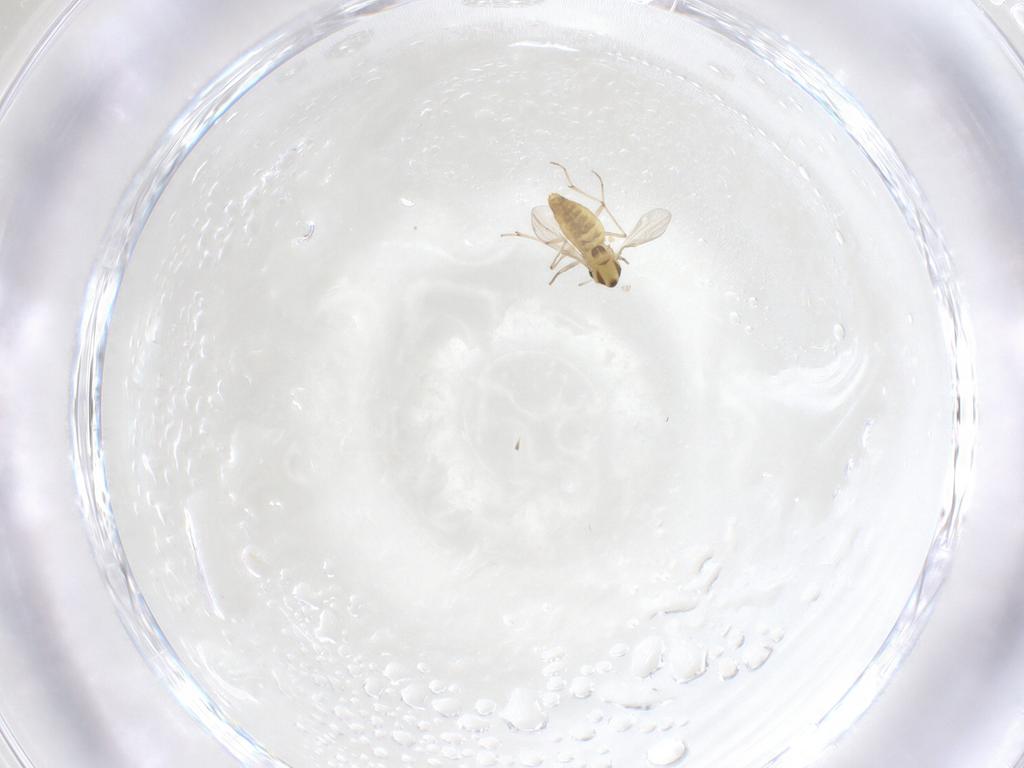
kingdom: Animalia
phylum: Arthropoda
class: Insecta
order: Diptera
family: Chironomidae
